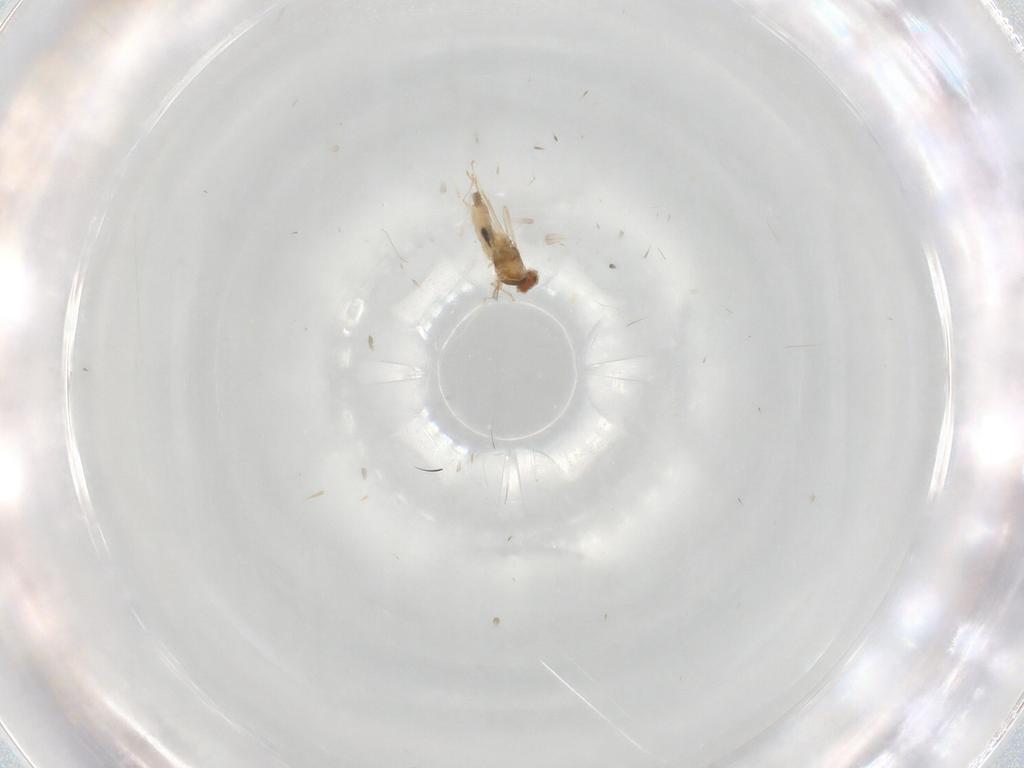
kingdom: Animalia
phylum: Arthropoda
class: Insecta
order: Diptera
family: Cecidomyiidae
